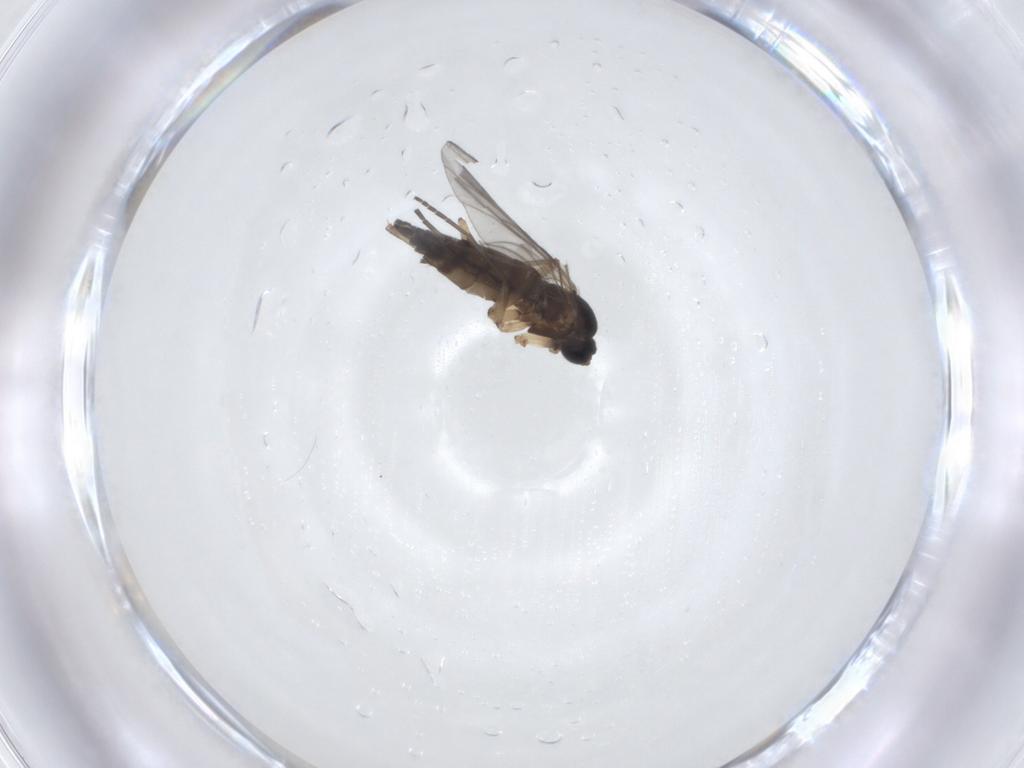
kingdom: Animalia
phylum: Arthropoda
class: Insecta
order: Diptera
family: Sciaridae
